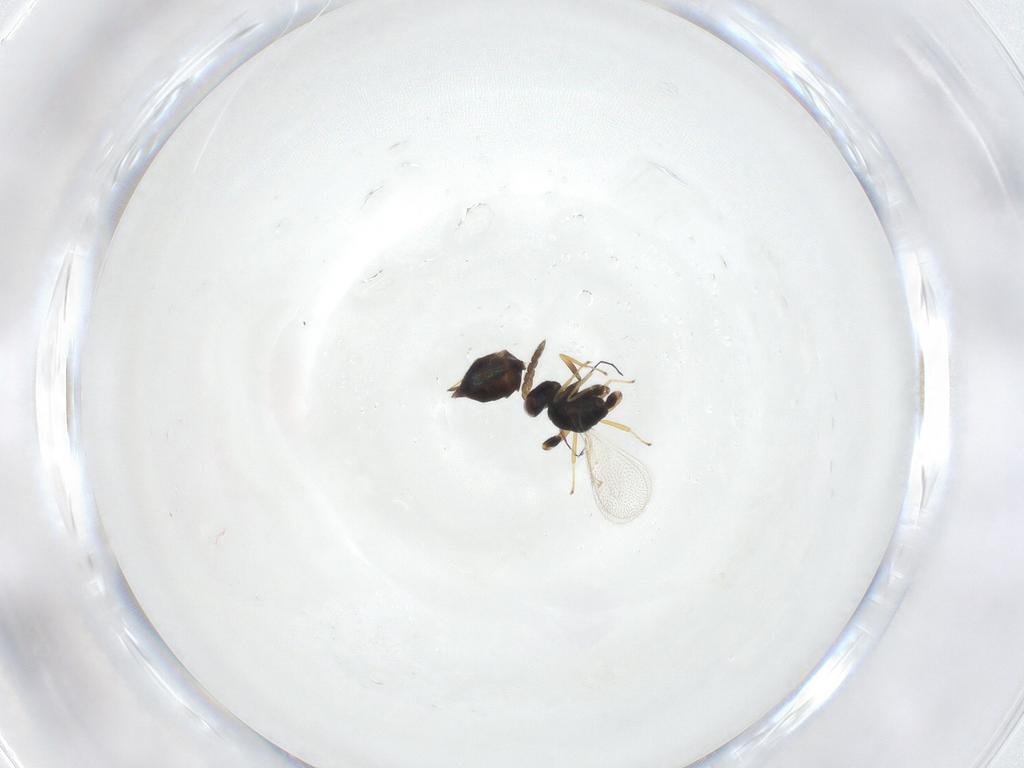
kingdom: Animalia
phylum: Arthropoda
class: Insecta
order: Hymenoptera
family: Eulophidae
